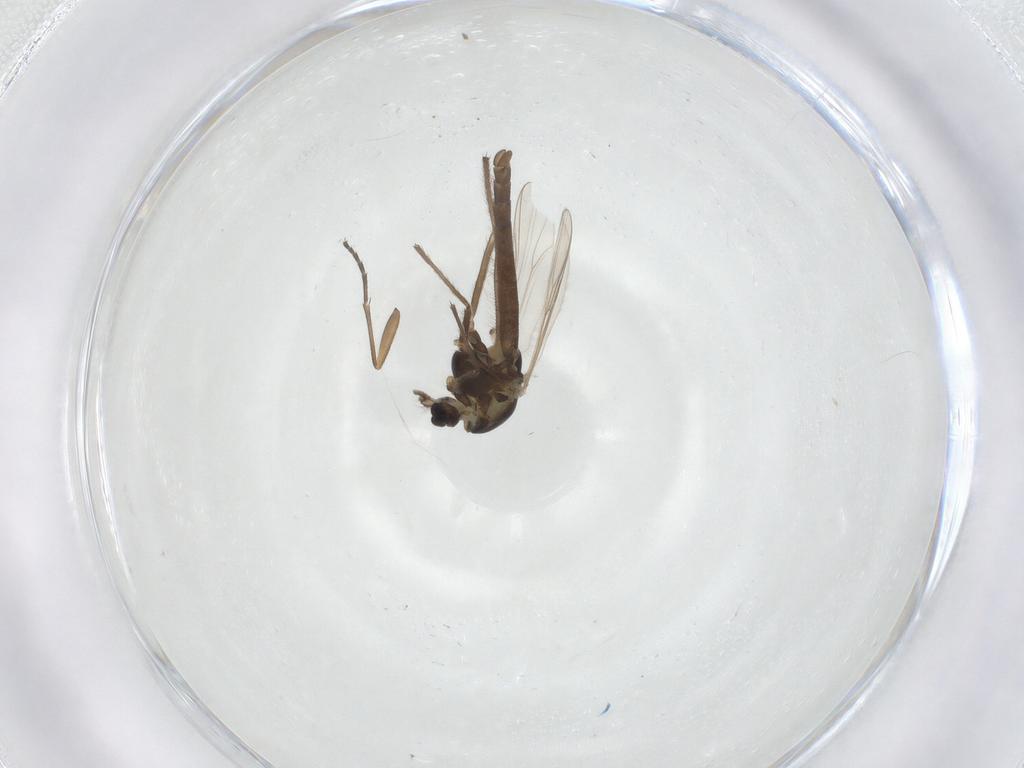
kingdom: Animalia
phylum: Arthropoda
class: Insecta
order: Diptera
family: Chironomidae
